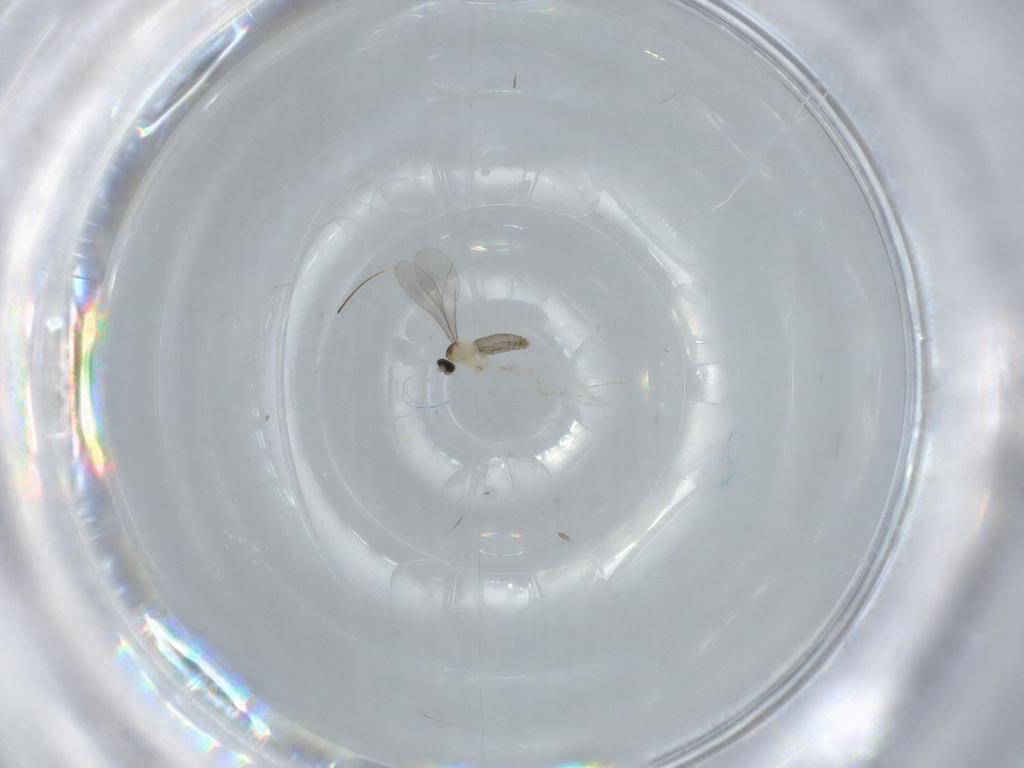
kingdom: Animalia
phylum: Arthropoda
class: Insecta
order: Diptera
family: Cecidomyiidae
